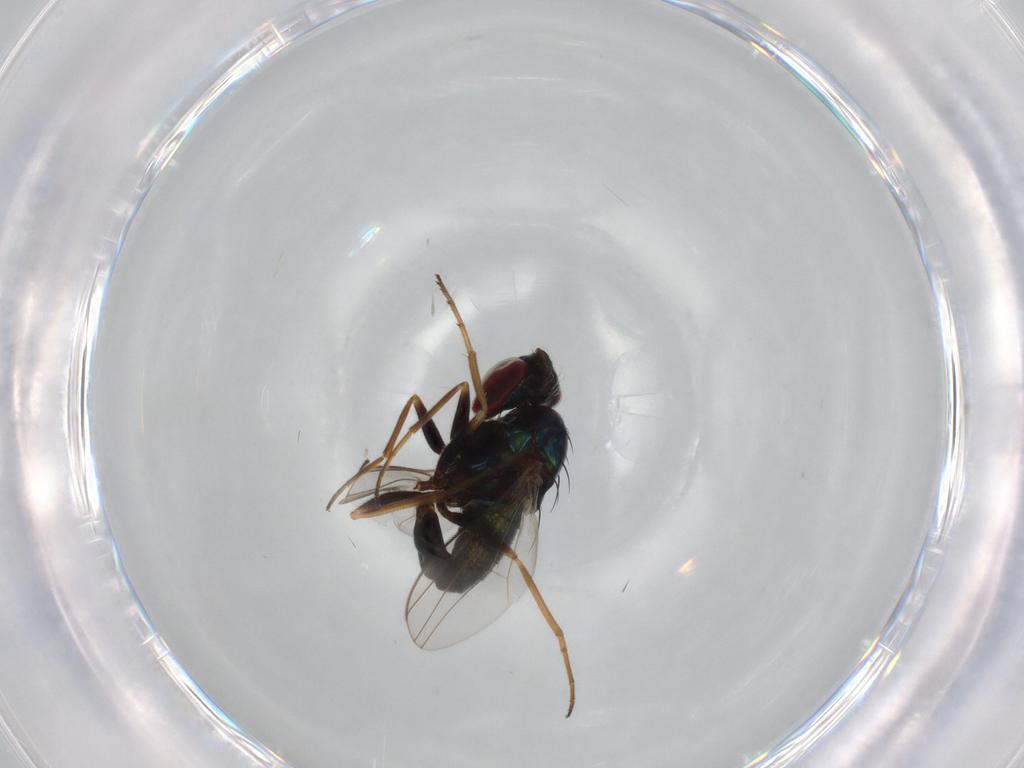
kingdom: Animalia
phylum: Arthropoda
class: Insecta
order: Diptera
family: Dolichopodidae
